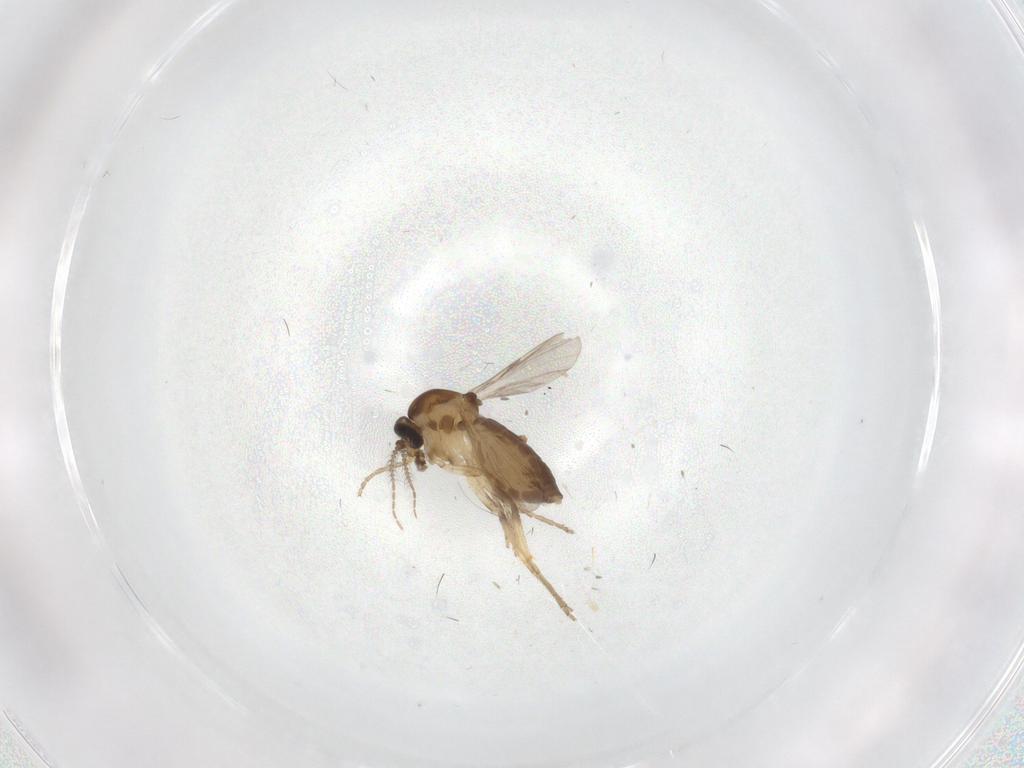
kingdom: Animalia
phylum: Arthropoda
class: Insecta
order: Diptera
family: Ceratopogonidae
